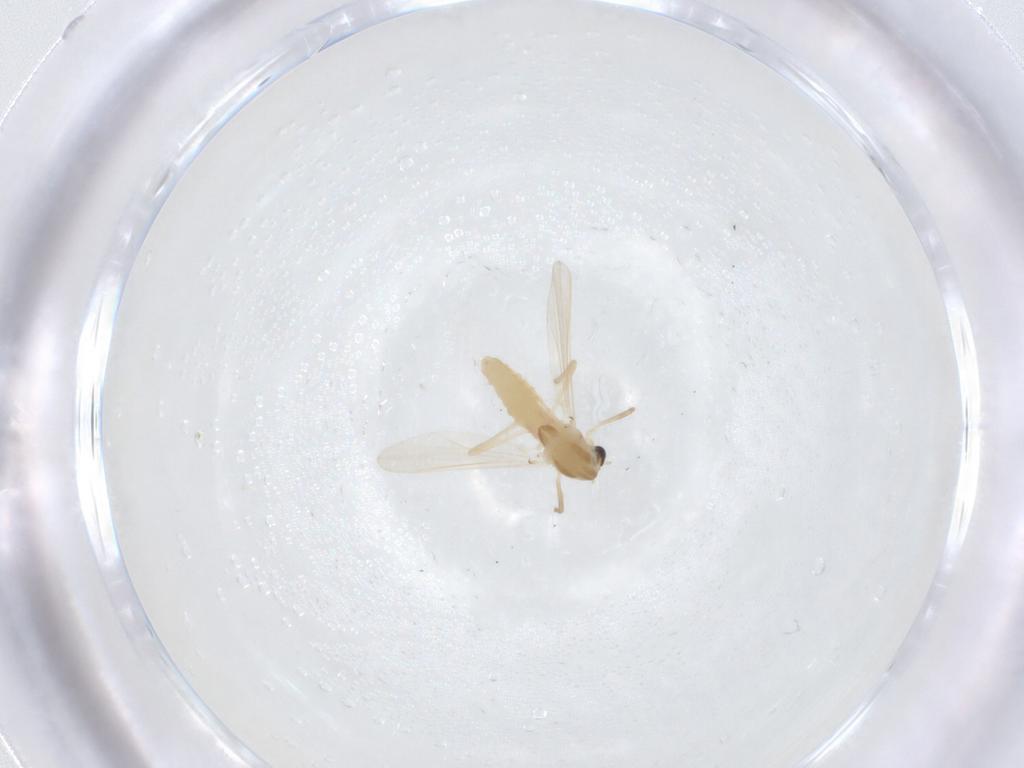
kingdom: Animalia
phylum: Arthropoda
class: Insecta
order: Diptera
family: Chironomidae
